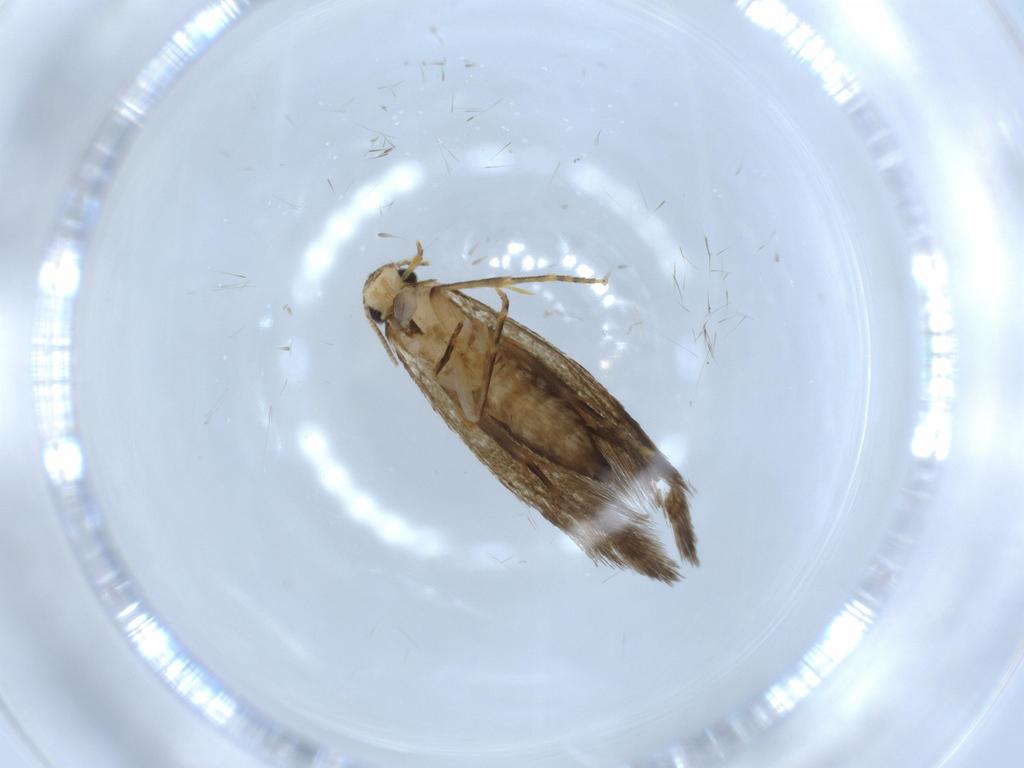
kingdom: Animalia
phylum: Arthropoda
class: Insecta
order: Lepidoptera
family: Tineidae
